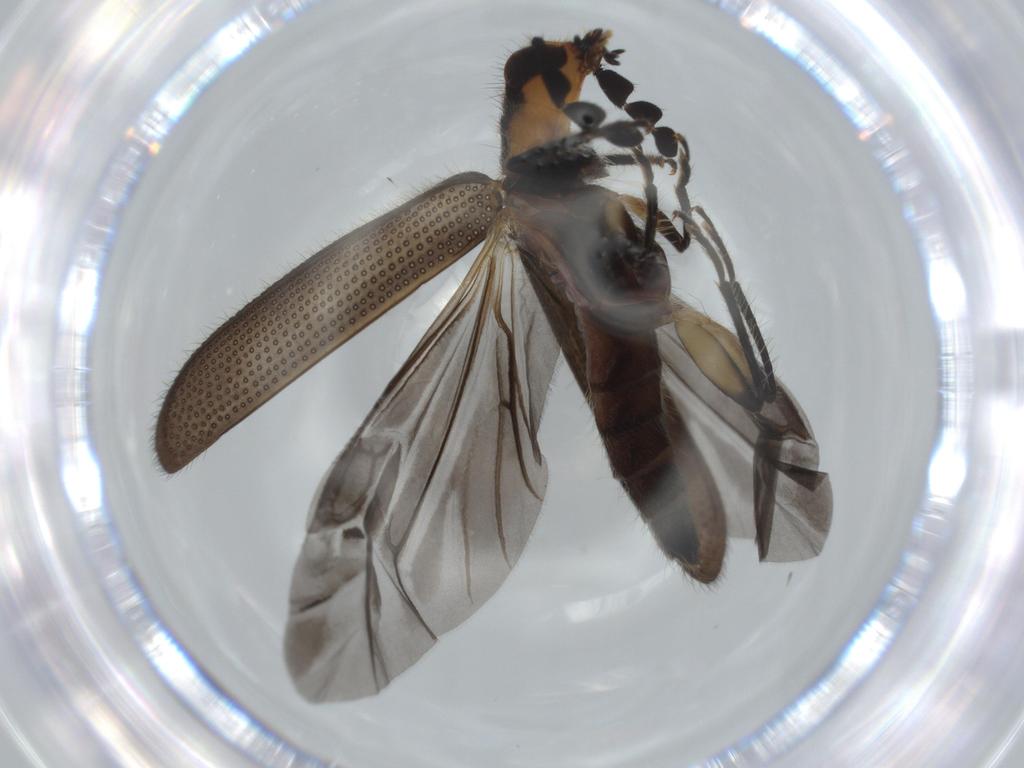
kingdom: Animalia
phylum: Arthropoda
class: Insecta
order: Coleoptera
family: Cleridae
